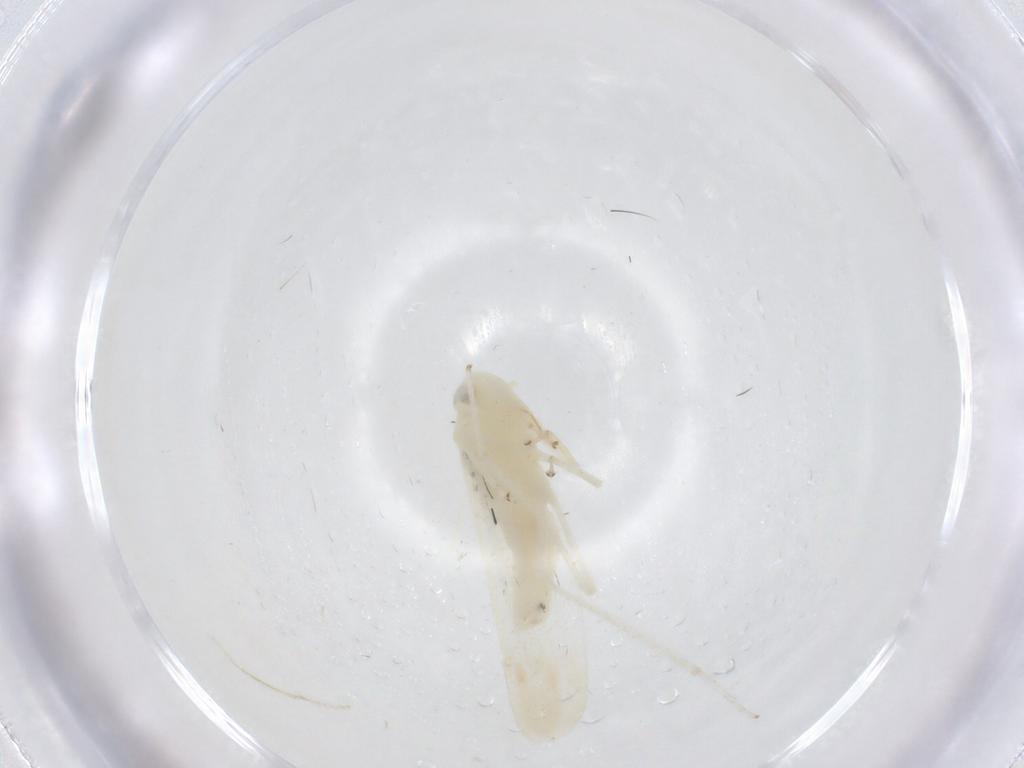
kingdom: Animalia
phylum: Arthropoda
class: Insecta
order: Hemiptera
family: Cicadellidae
